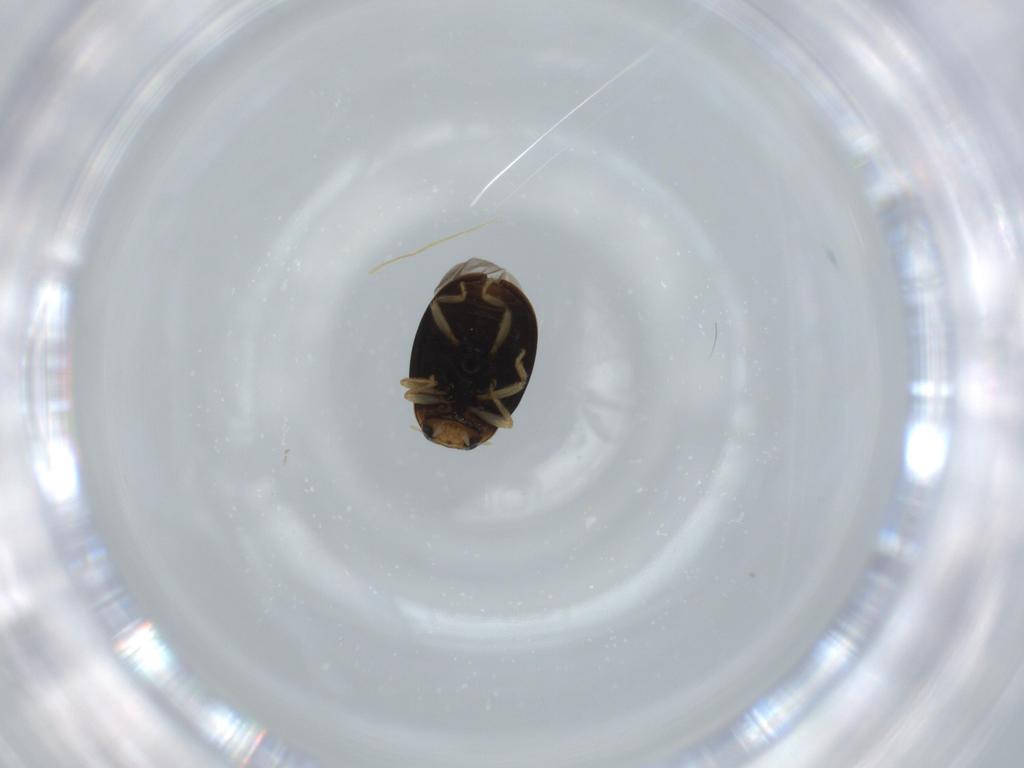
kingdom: Animalia
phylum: Arthropoda
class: Insecta
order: Coleoptera
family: Coccinellidae
